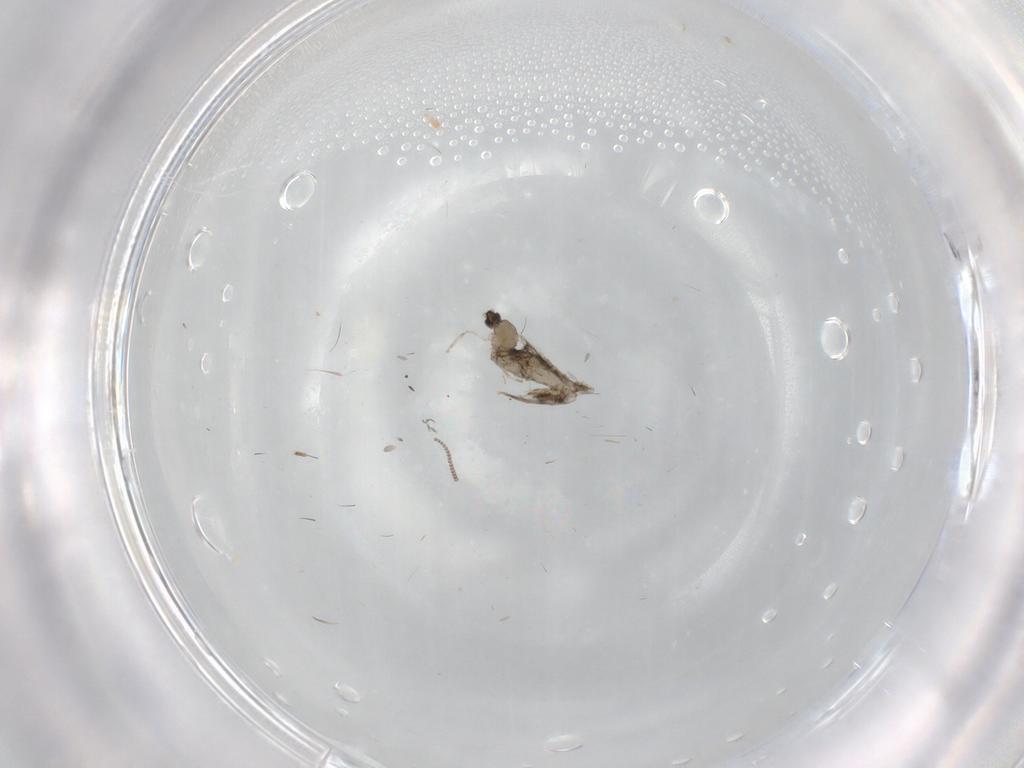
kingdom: Animalia
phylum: Arthropoda
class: Insecta
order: Diptera
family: Cecidomyiidae
